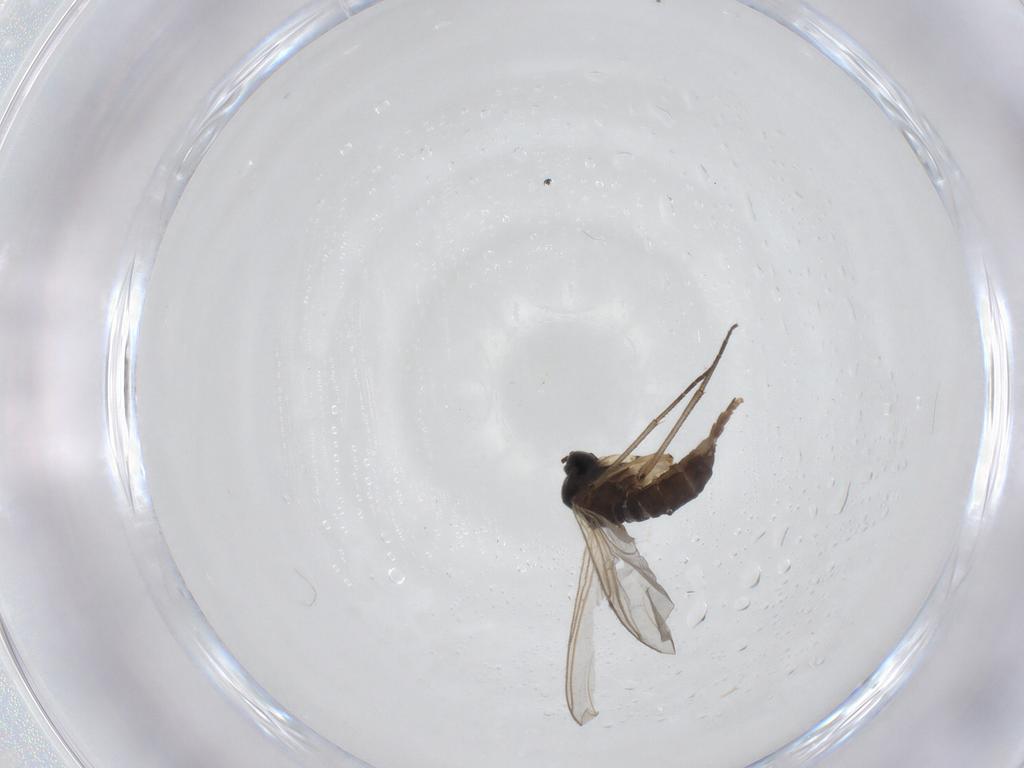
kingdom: Animalia
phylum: Arthropoda
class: Insecta
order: Diptera
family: Sciaridae
